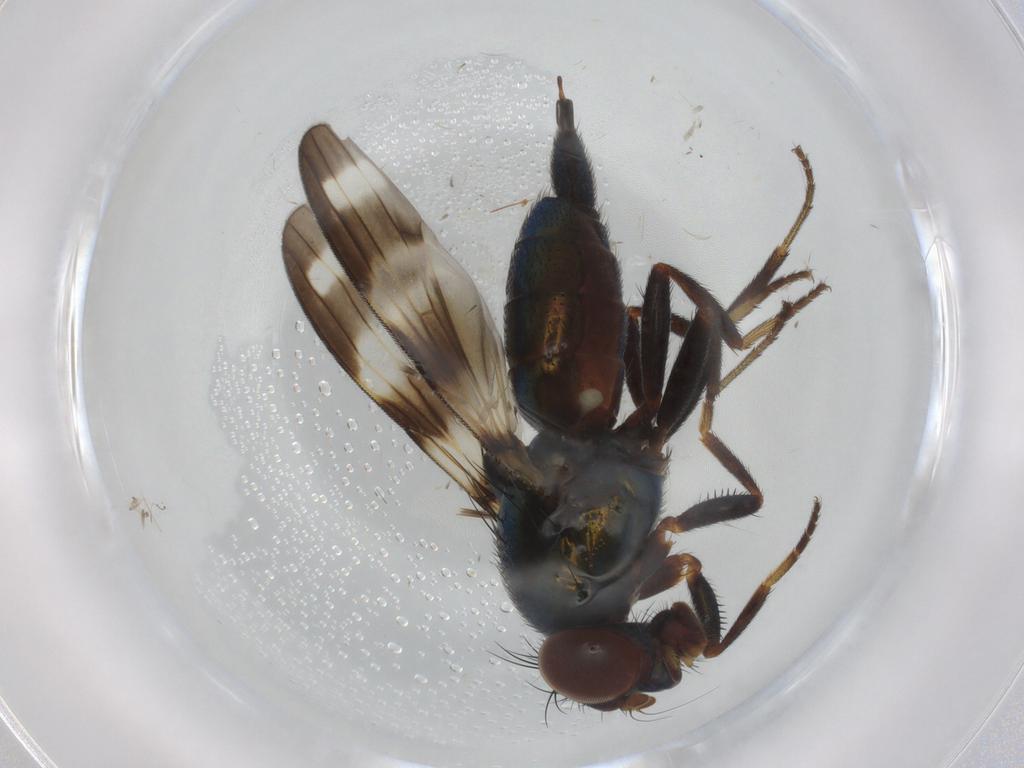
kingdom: Animalia
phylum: Arthropoda
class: Insecta
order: Diptera
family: Ulidiidae
